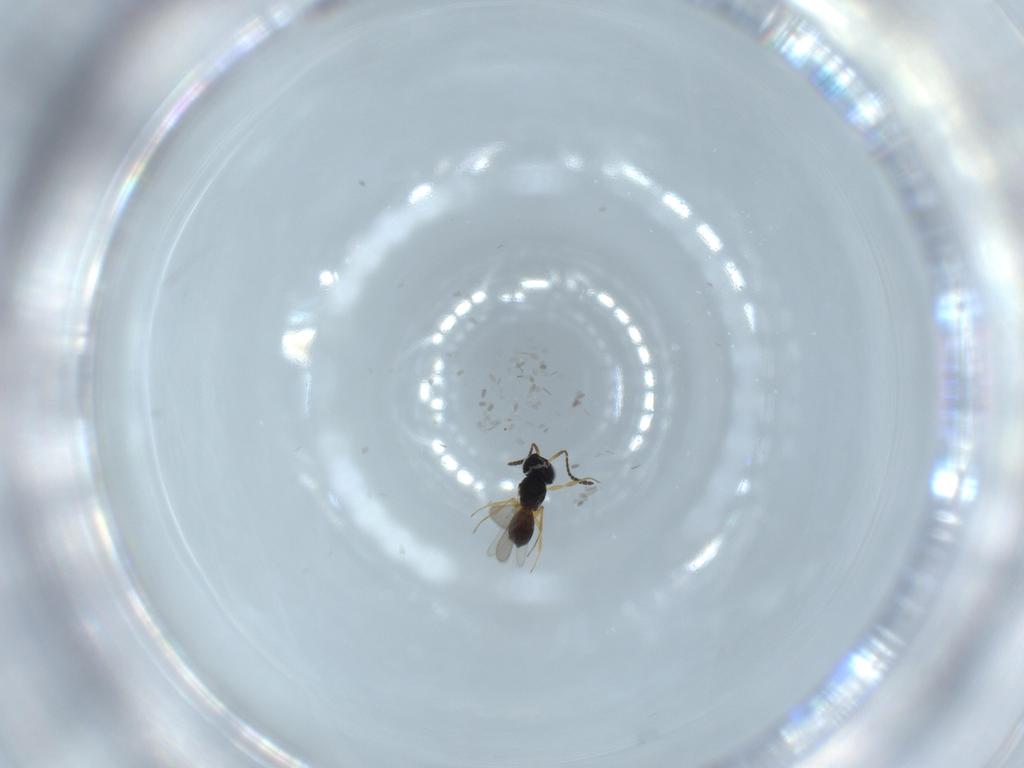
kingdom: Animalia
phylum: Arthropoda
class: Insecta
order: Hymenoptera
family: Scelionidae
